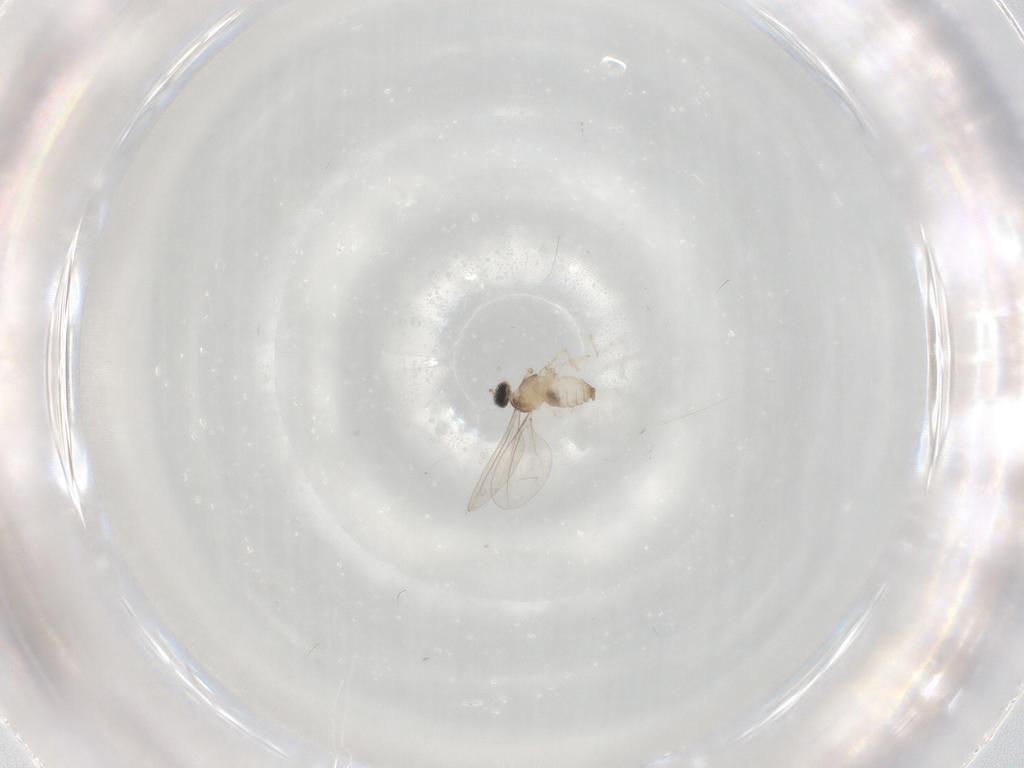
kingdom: Animalia
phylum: Arthropoda
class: Insecta
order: Diptera
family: Cecidomyiidae
